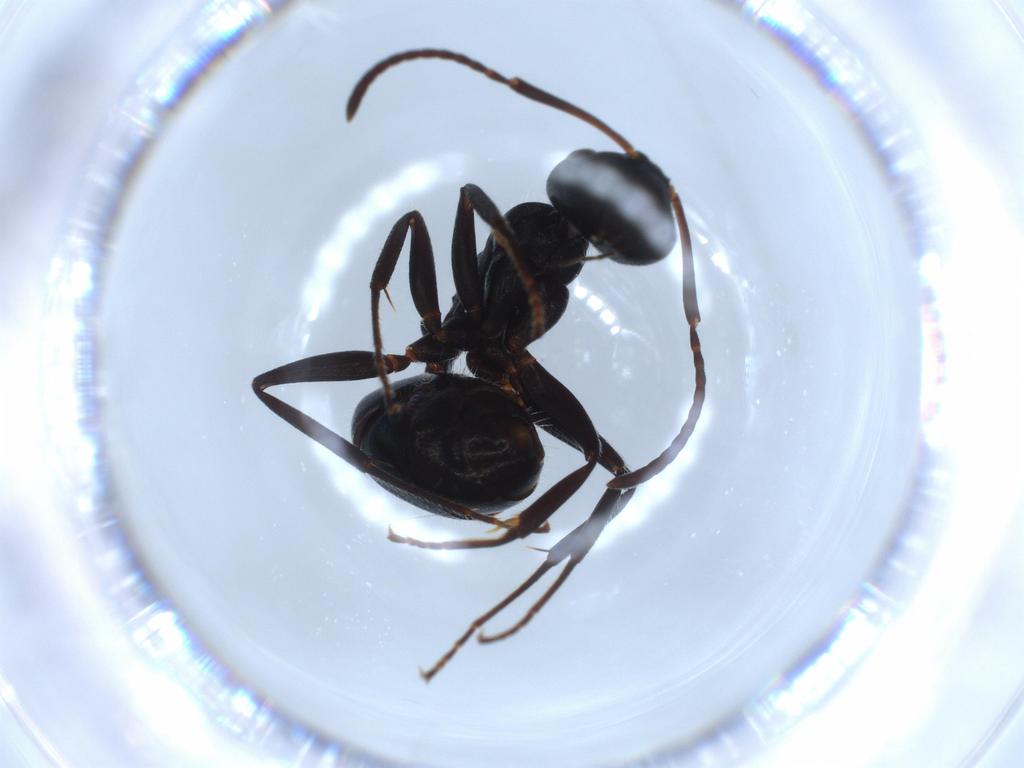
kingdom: Animalia
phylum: Arthropoda
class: Insecta
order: Hymenoptera
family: Formicidae
